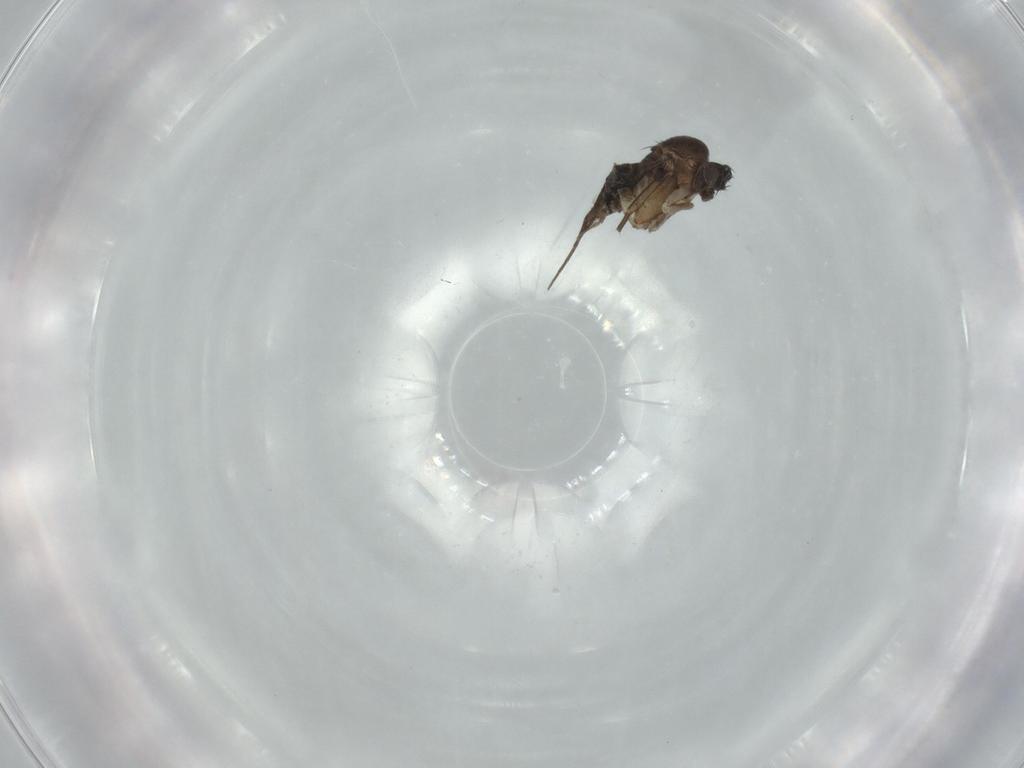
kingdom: Animalia
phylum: Arthropoda
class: Insecta
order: Diptera
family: Phoridae
